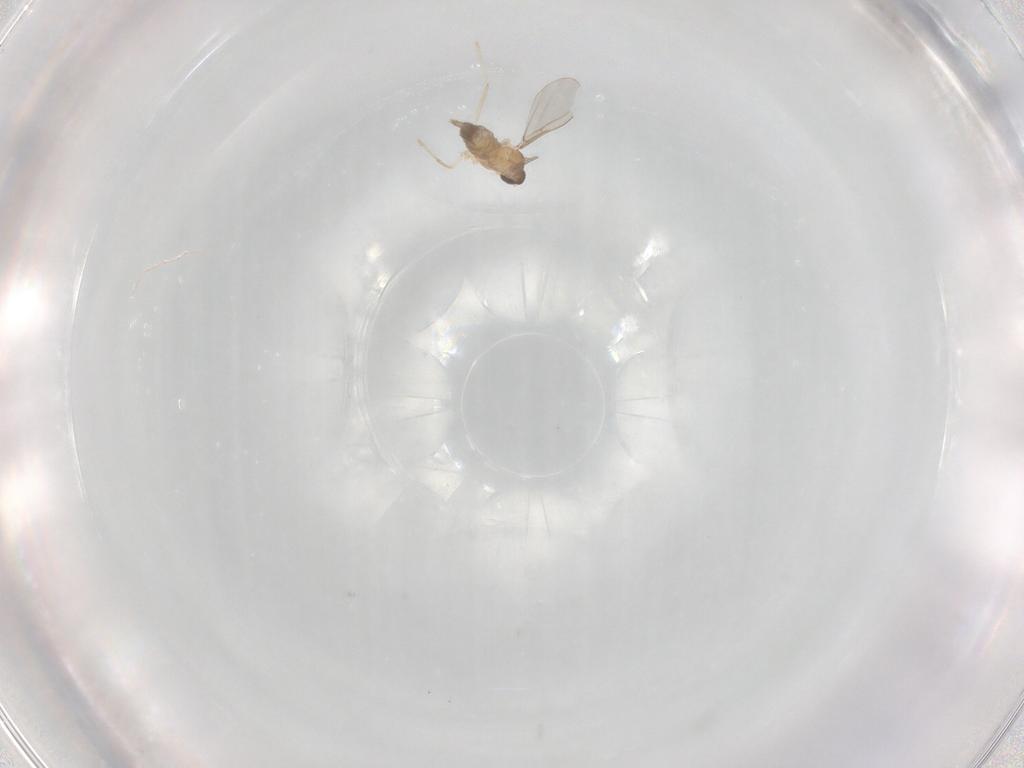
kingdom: Animalia
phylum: Arthropoda
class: Insecta
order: Diptera
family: Cecidomyiidae
